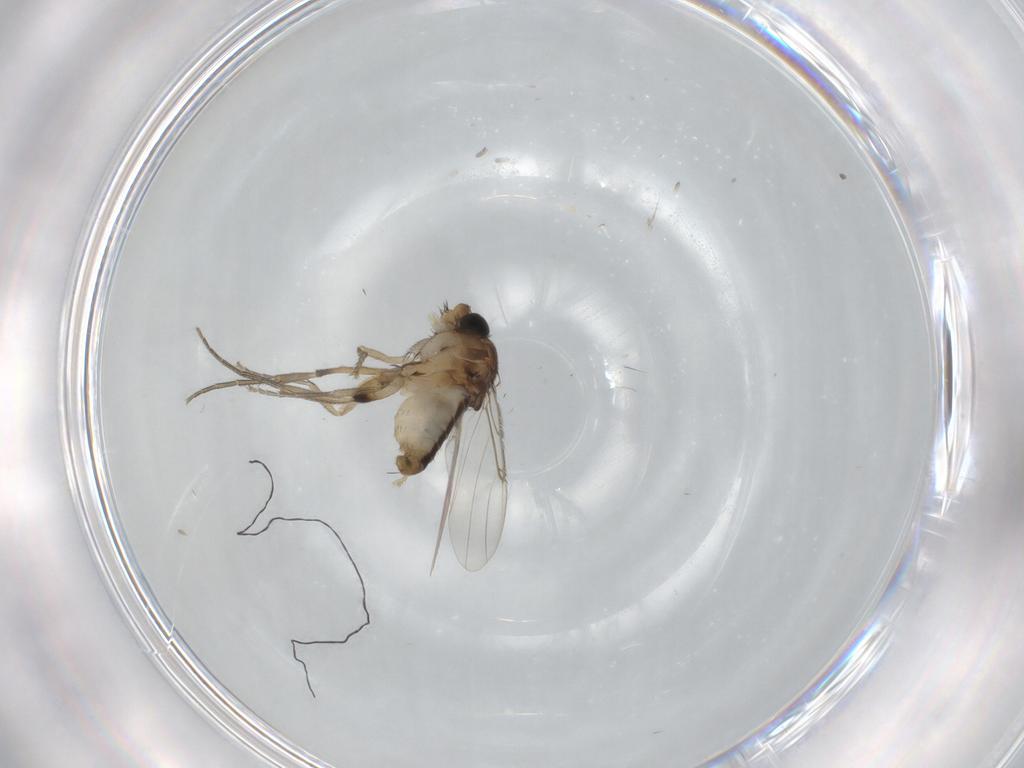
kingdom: Animalia
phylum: Arthropoda
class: Insecta
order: Diptera
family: Phoridae
